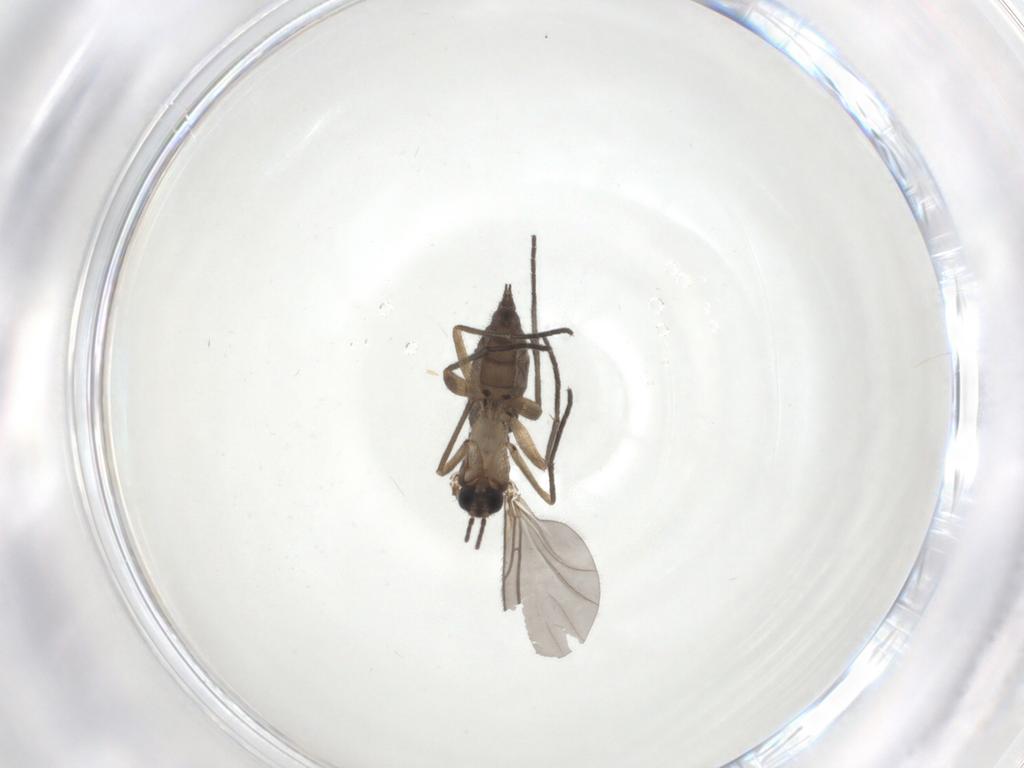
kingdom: Animalia
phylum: Arthropoda
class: Insecta
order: Diptera
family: Sciaridae
